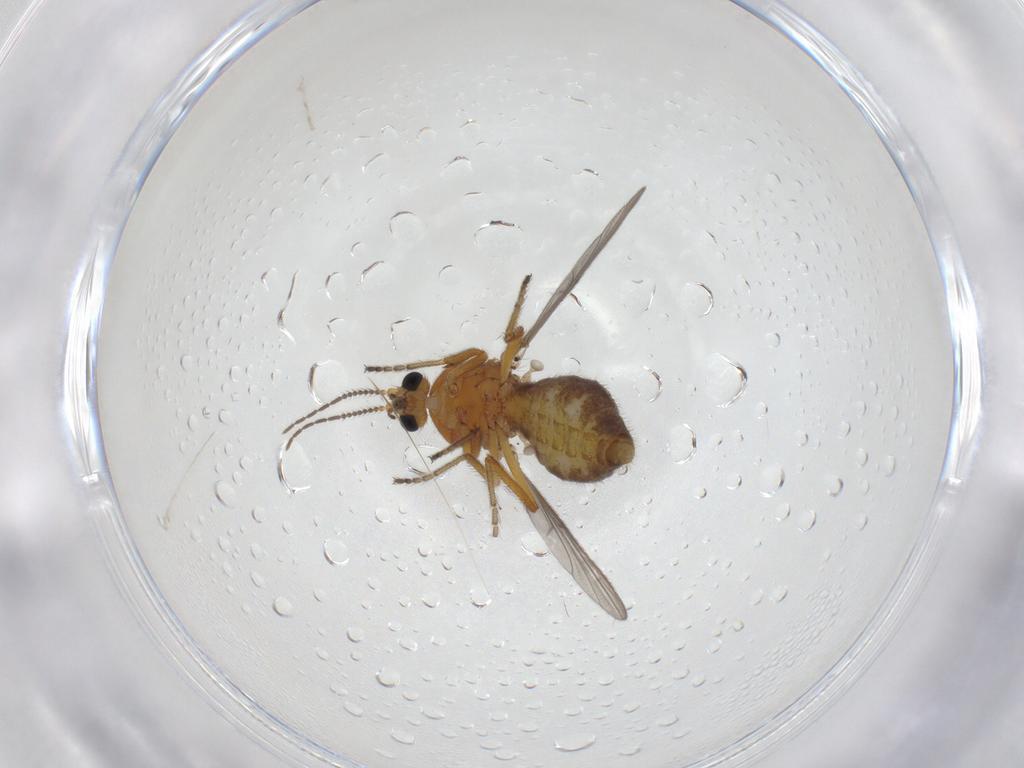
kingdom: Animalia
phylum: Arthropoda
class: Insecta
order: Diptera
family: Ceratopogonidae
